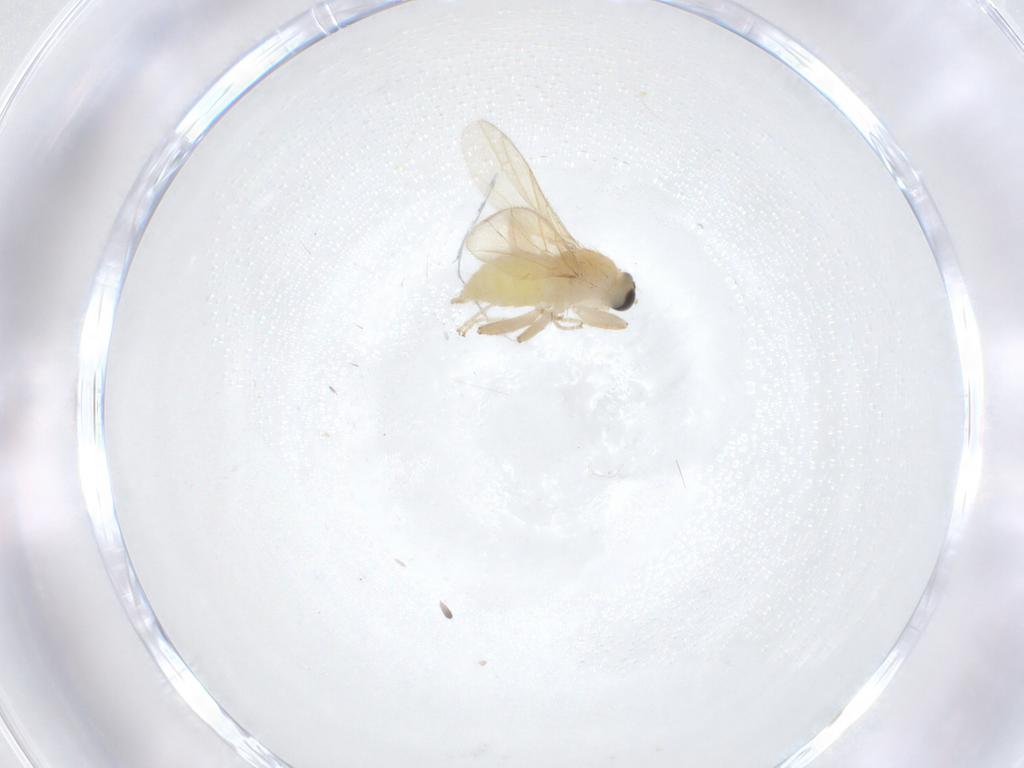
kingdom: Animalia
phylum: Arthropoda
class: Insecta
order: Diptera
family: Hybotidae
